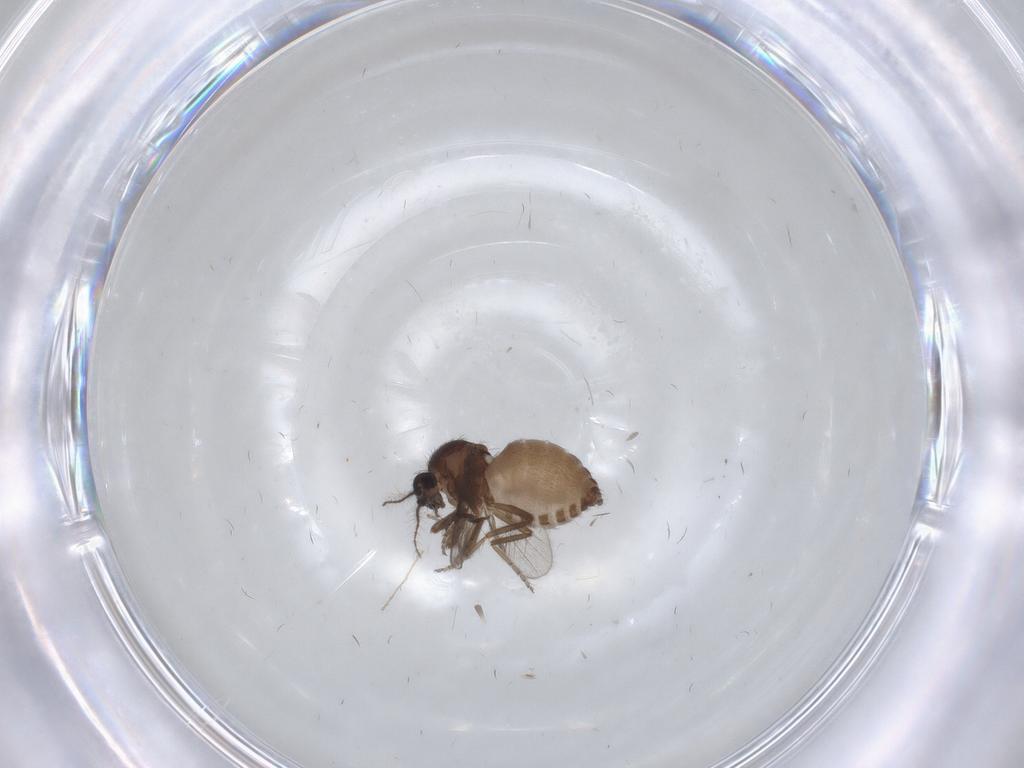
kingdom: Animalia
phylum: Arthropoda
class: Insecta
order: Diptera
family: Ceratopogonidae
